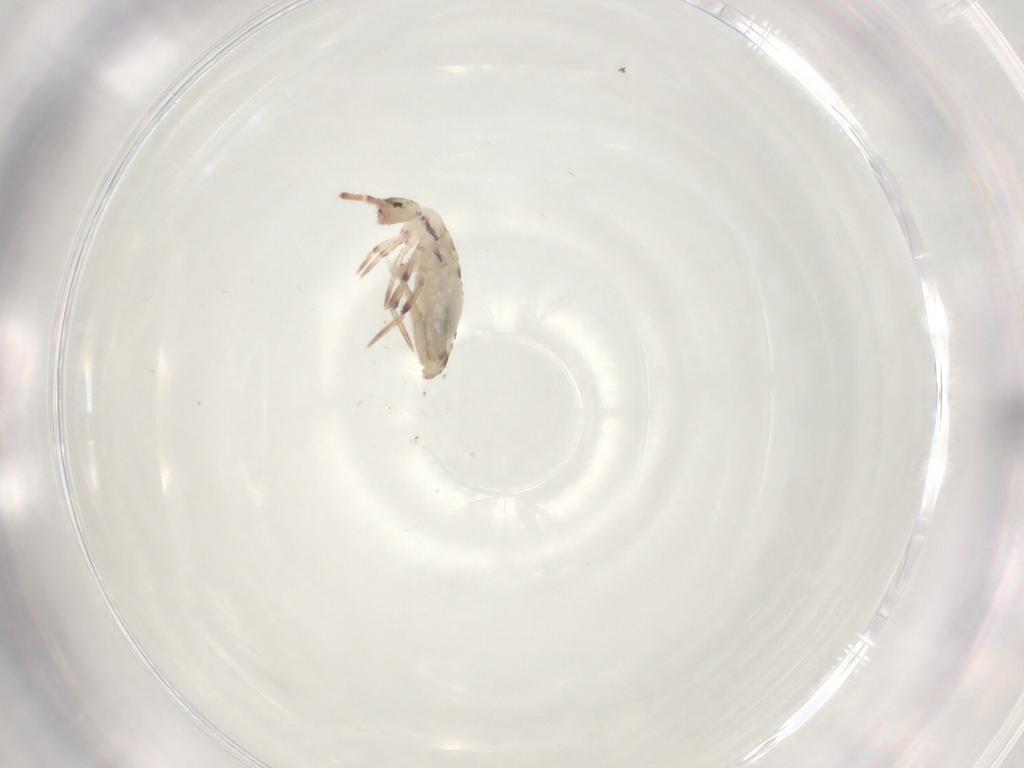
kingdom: Animalia
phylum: Arthropoda
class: Collembola
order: Entomobryomorpha
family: Entomobryidae
